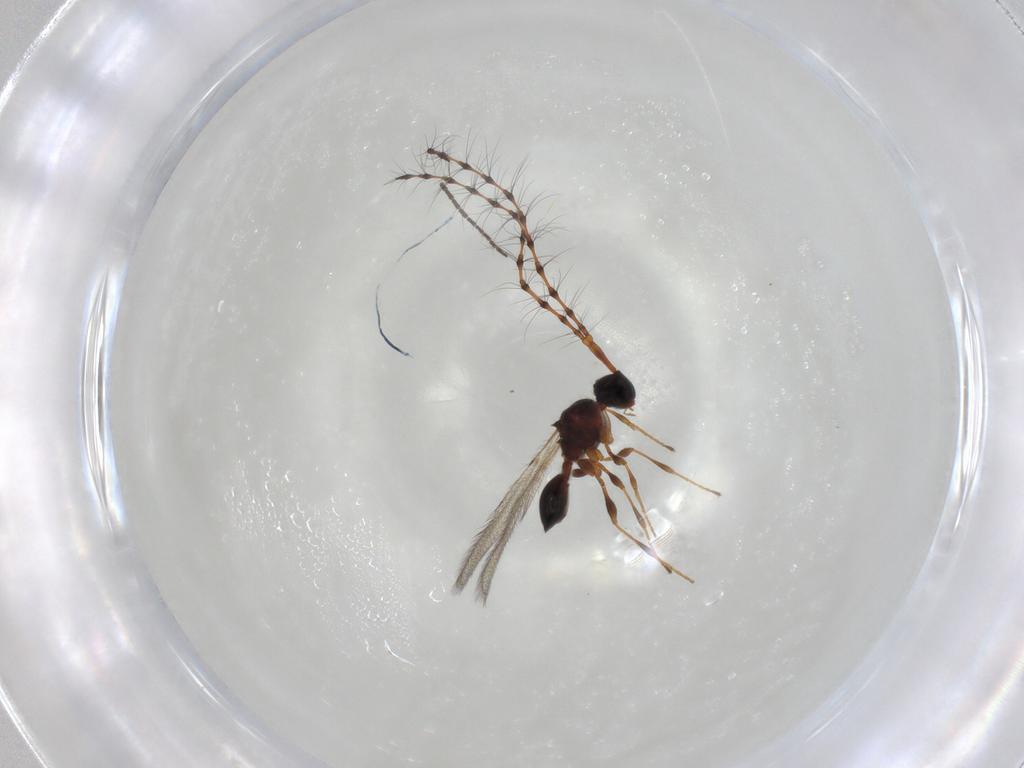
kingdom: Animalia
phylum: Arthropoda
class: Insecta
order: Hymenoptera
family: Diapriidae
